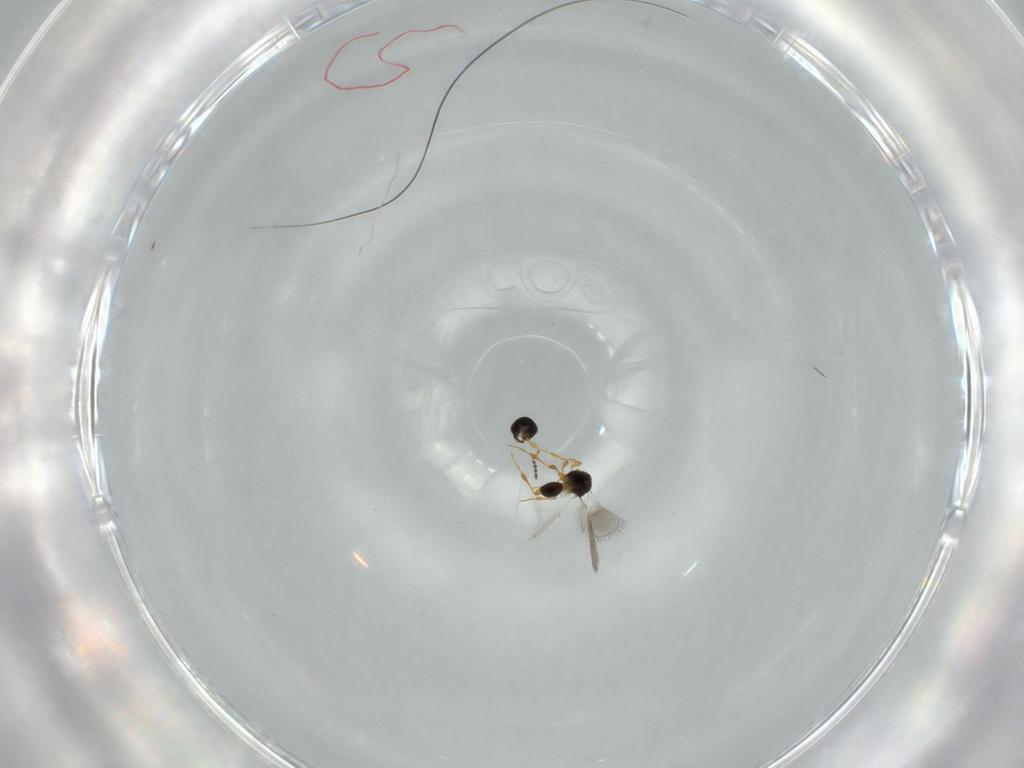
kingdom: Animalia
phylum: Arthropoda
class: Insecta
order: Hymenoptera
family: Platygastridae
